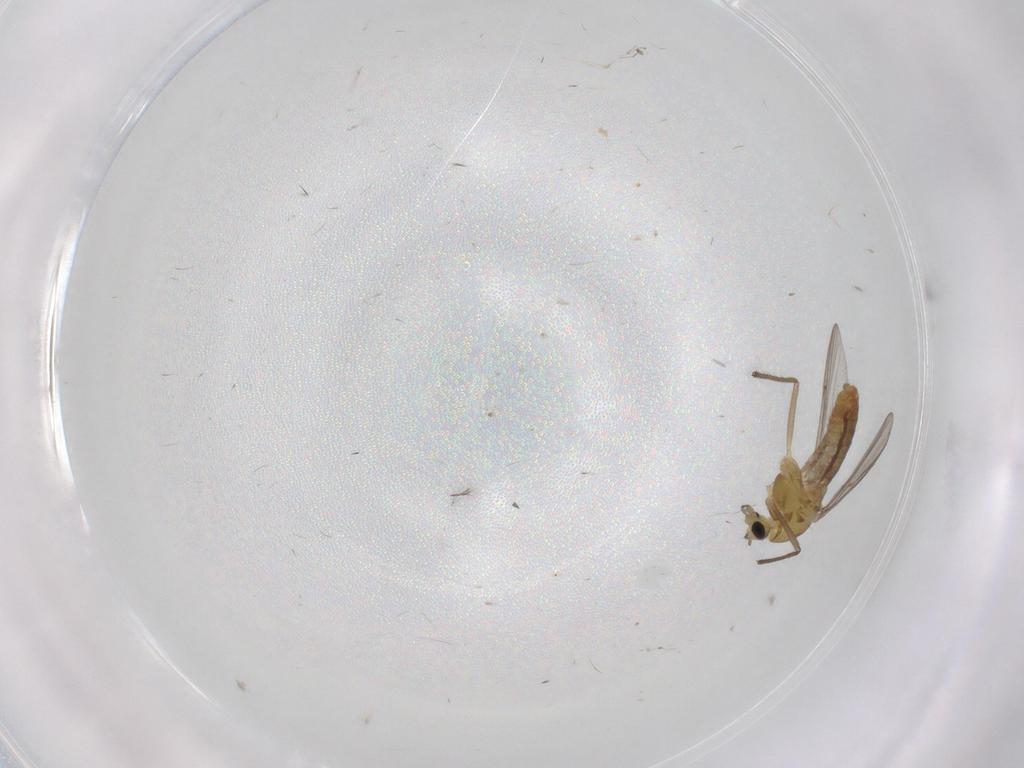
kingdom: Animalia
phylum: Arthropoda
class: Insecta
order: Diptera
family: Chironomidae
